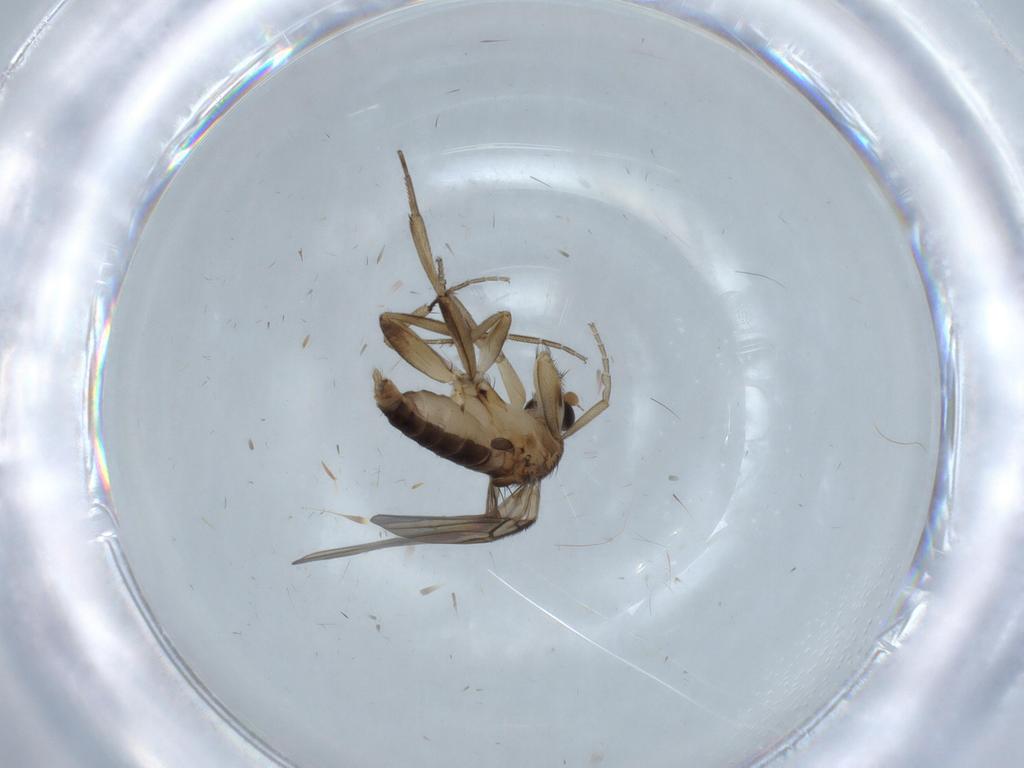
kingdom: Animalia
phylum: Arthropoda
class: Insecta
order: Diptera
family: Phoridae
